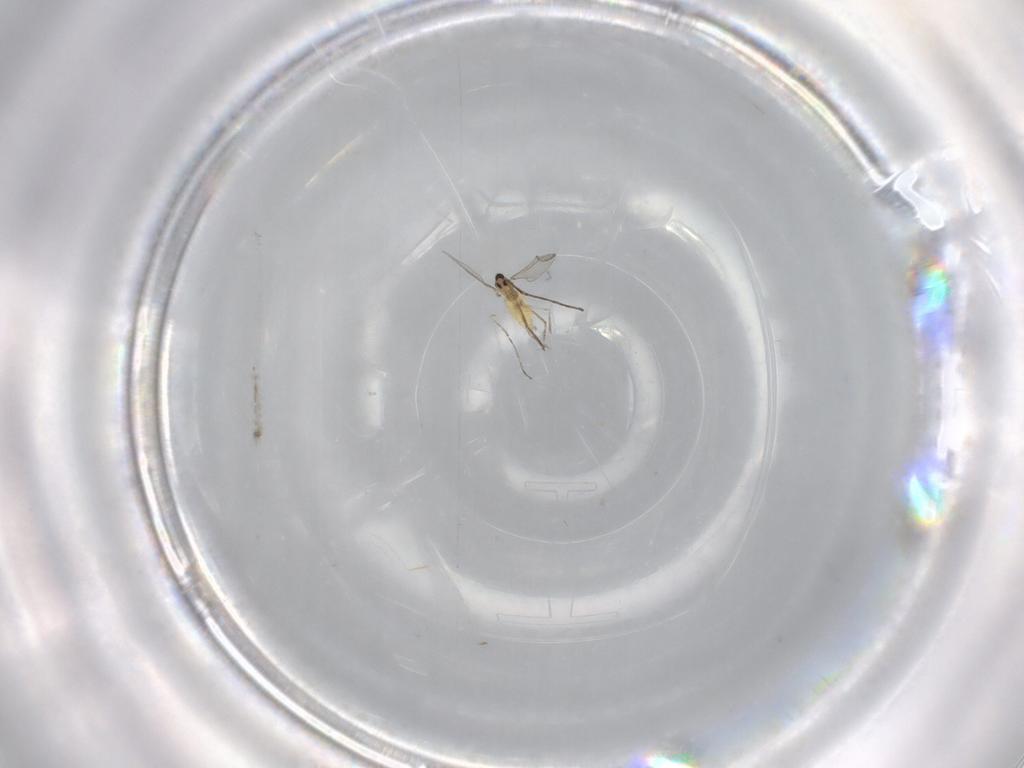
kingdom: Animalia
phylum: Arthropoda
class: Insecta
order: Diptera
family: Cecidomyiidae
